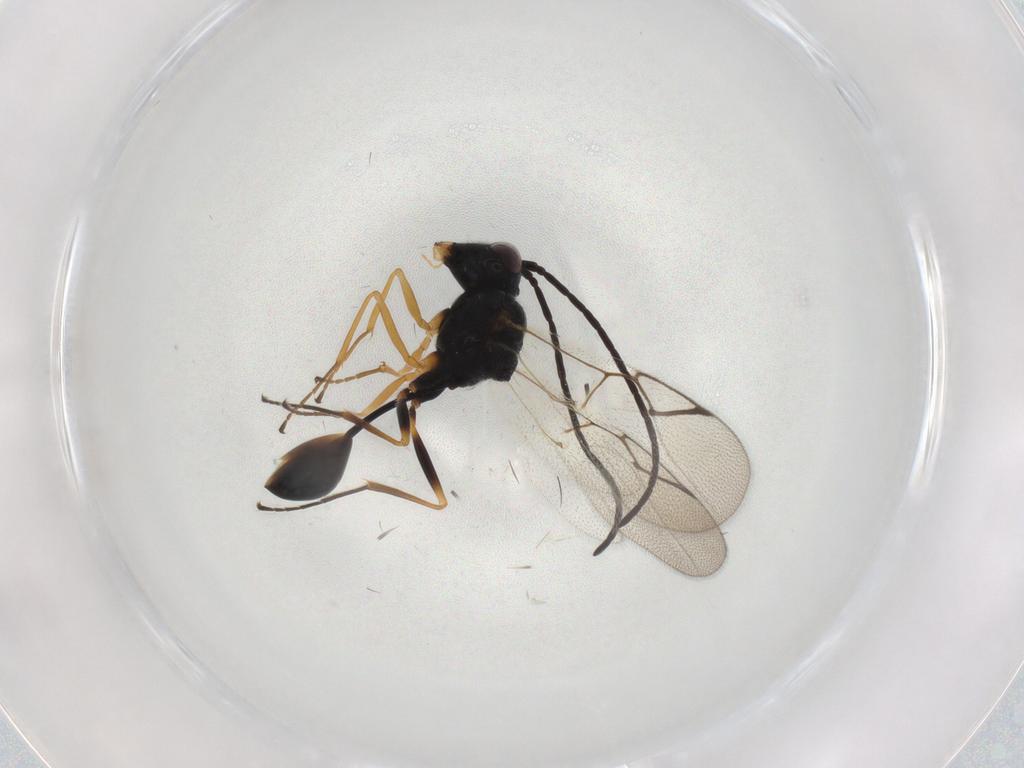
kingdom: Animalia
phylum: Arthropoda
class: Insecta
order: Hymenoptera
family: Figitidae
